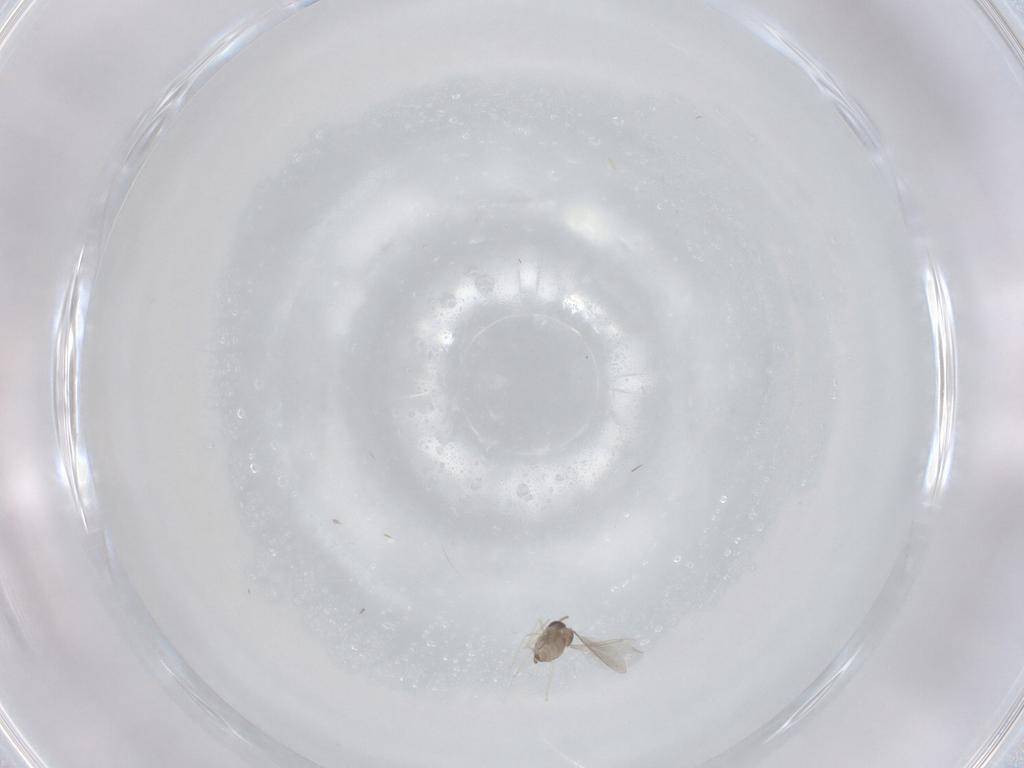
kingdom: Animalia
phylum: Arthropoda
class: Insecta
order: Diptera
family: Cecidomyiidae
